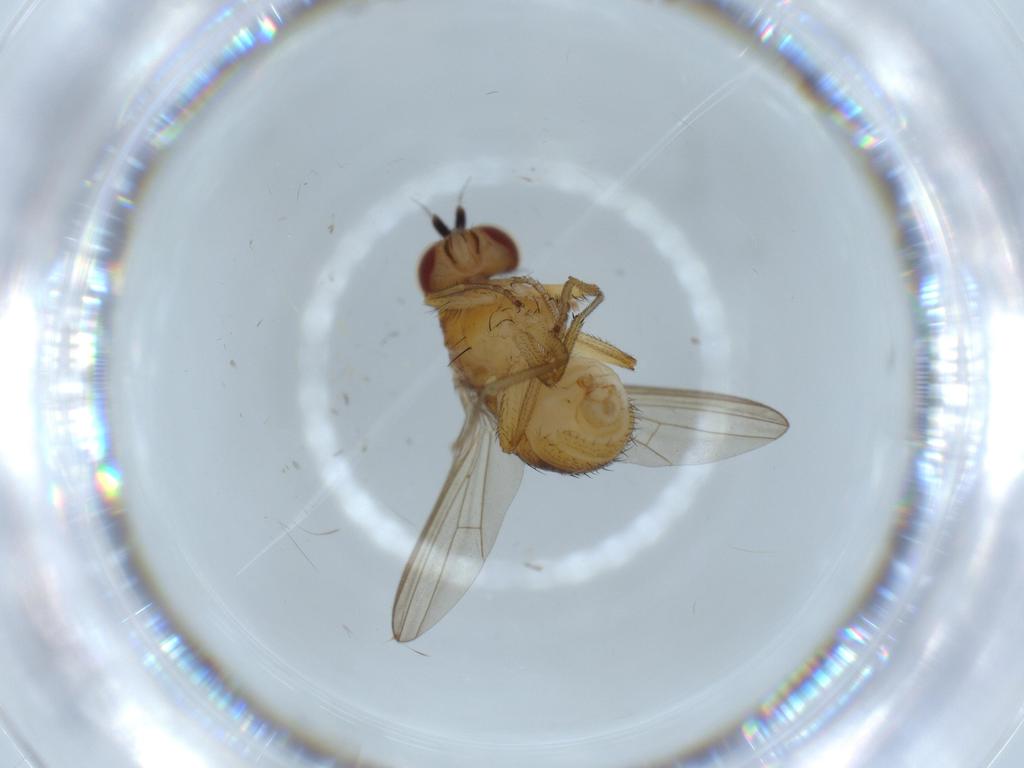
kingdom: Animalia
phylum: Arthropoda
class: Insecta
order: Diptera
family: Lauxaniidae
